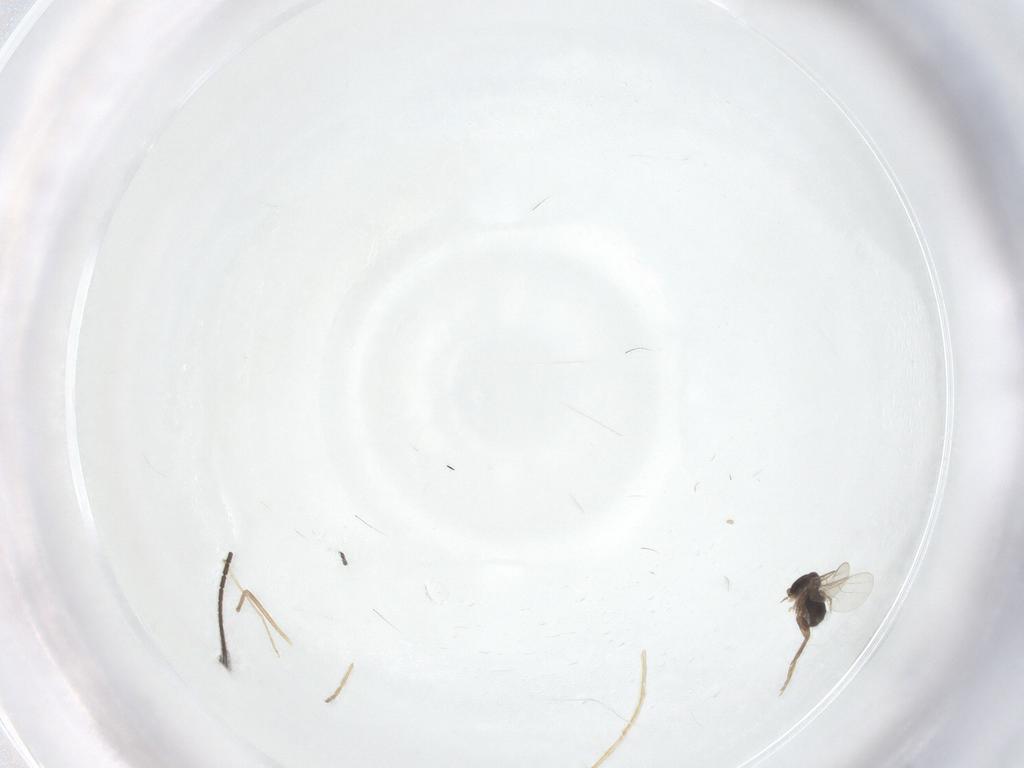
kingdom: Animalia
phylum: Arthropoda
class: Insecta
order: Diptera
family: Phoridae
